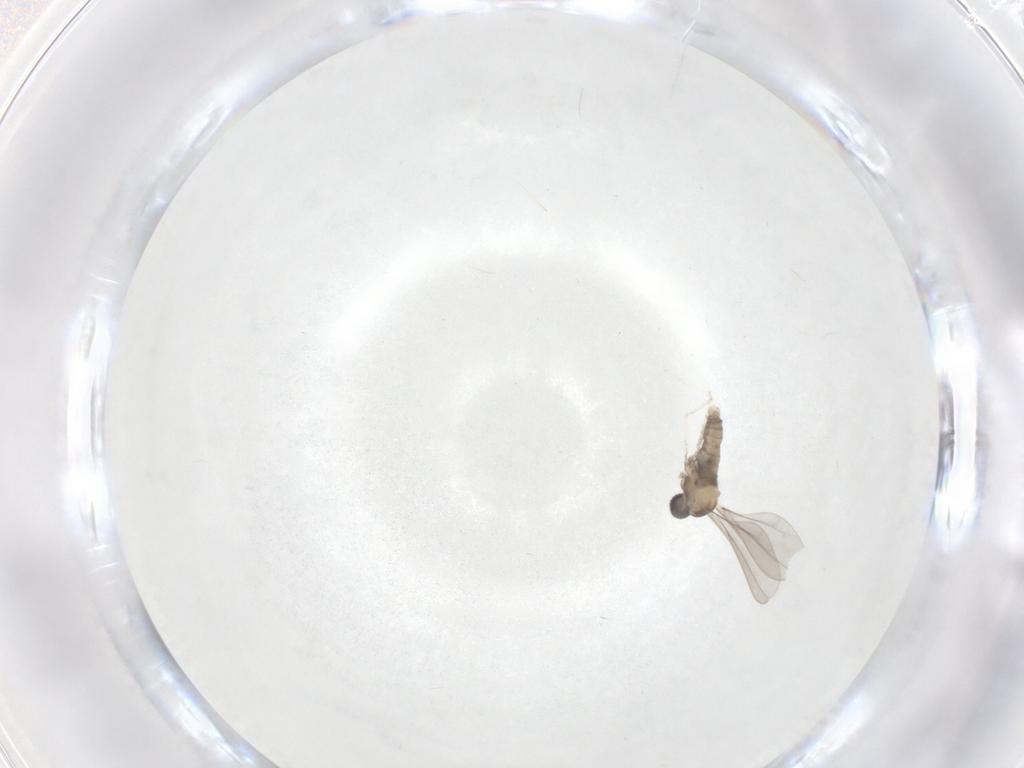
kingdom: Animalia
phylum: Arthropoda
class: Insecta
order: Diptera
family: Cecidomyiidae
